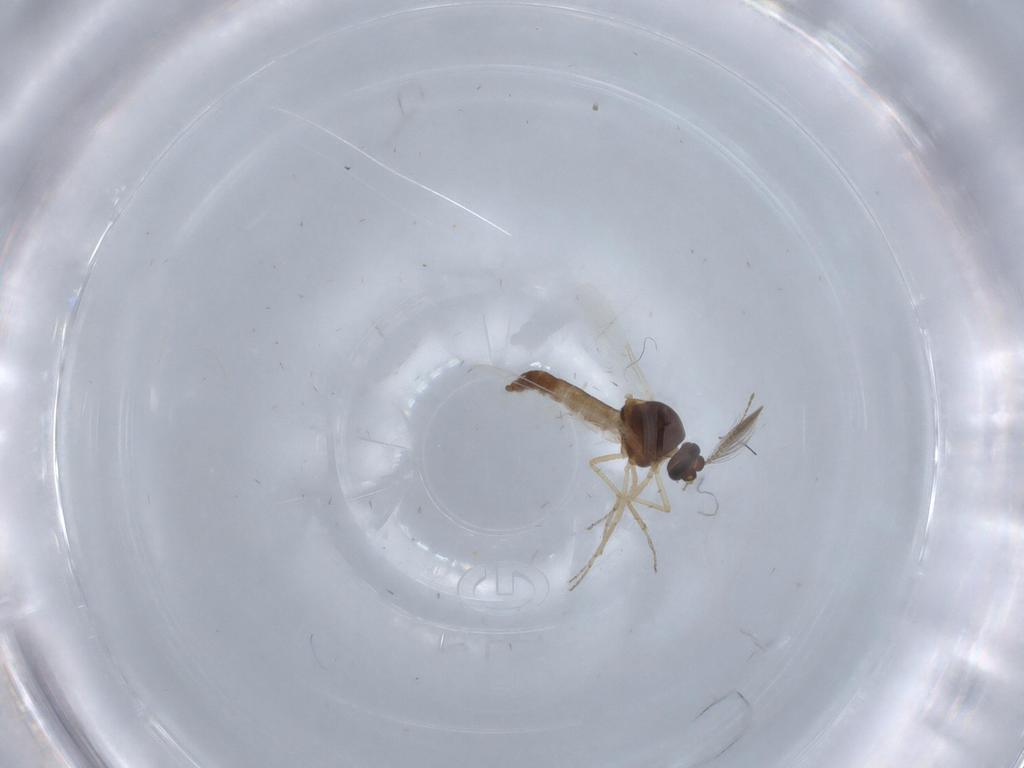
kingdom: Animalia
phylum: Arthropoda
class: Insecta
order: Diptera
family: Ceratopogonidae
